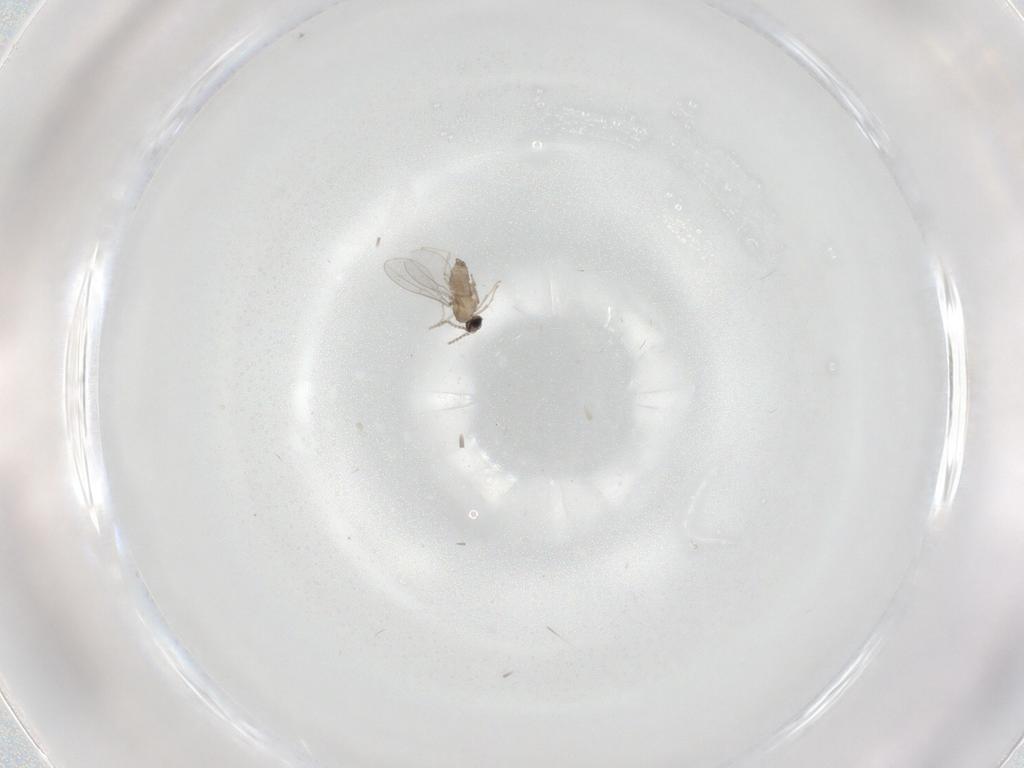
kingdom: Animalia
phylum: Arthropoda
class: Insecta
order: Diptera
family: Cecidomyiidae
